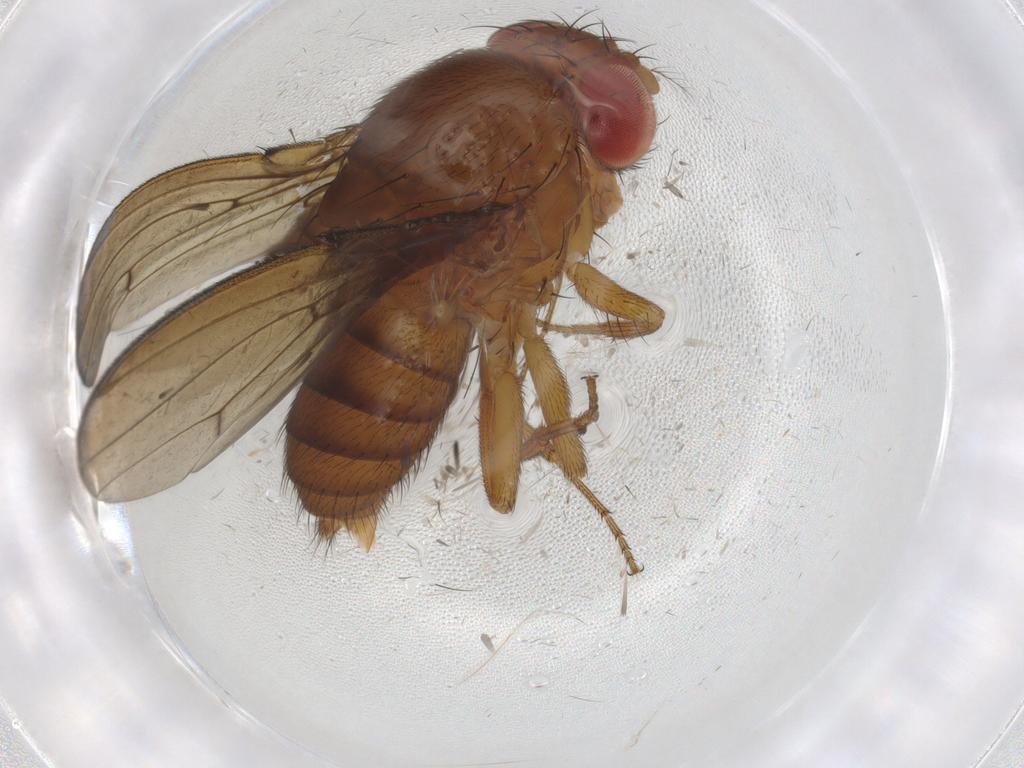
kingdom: Animalia
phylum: Arthropoda
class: Insecta
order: Diptera
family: Drosophilidae
